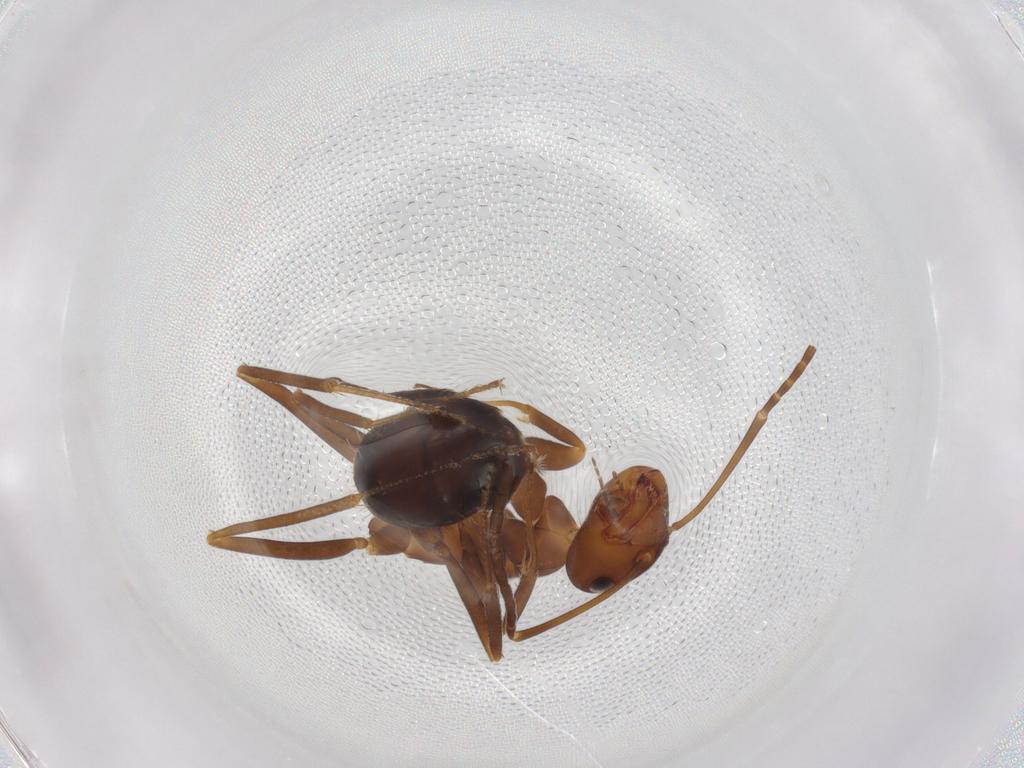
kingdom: Animalia
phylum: Arthropoda
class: Insecta
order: Hymenoptera
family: Formicidae
